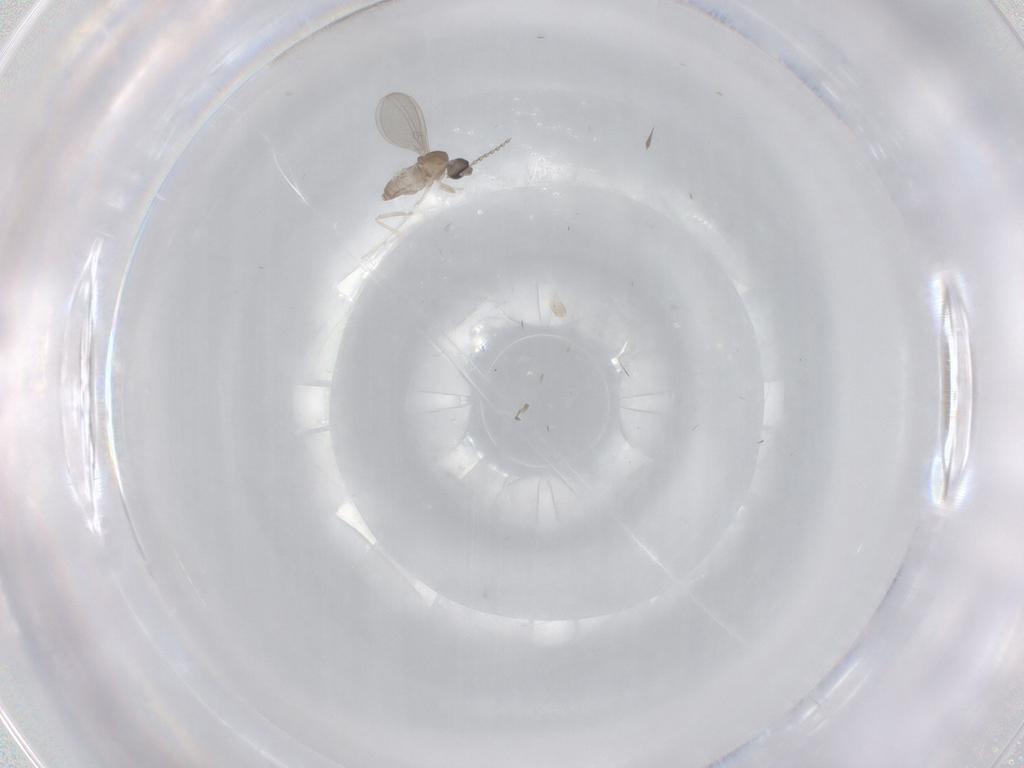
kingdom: Animalia
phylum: Arthropoda
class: Insecta
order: Diptera
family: Cecidomyiidae
